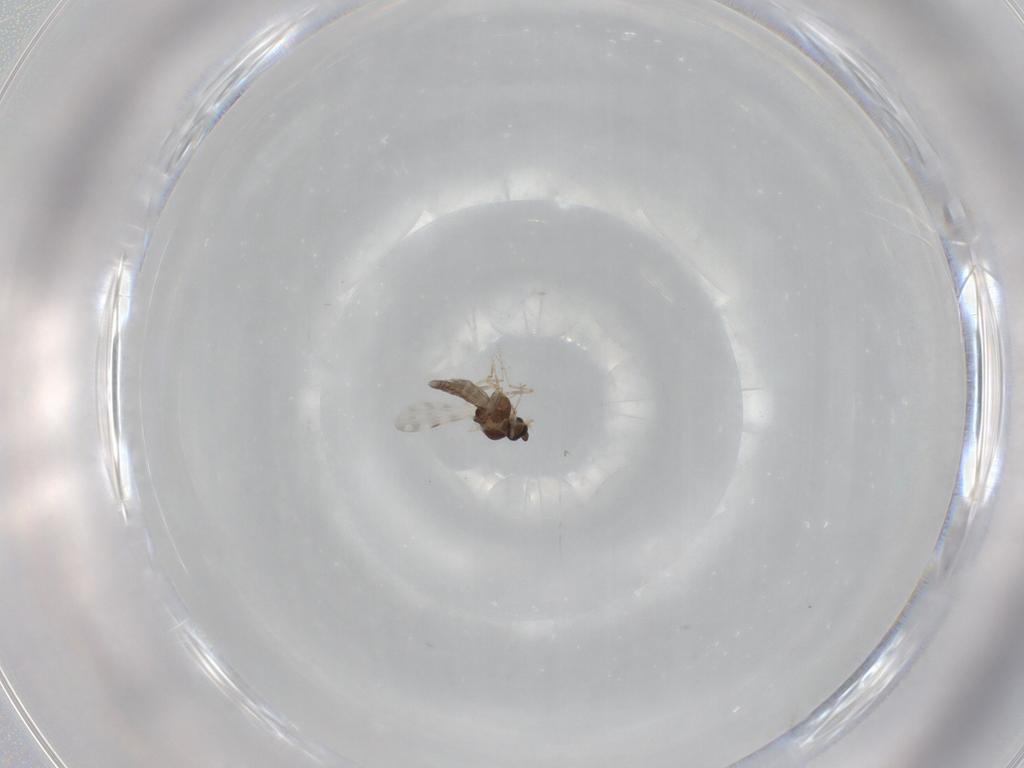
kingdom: Animalia
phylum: Arthropoda
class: Insecta
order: Diptera
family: Ceratopogonidae
